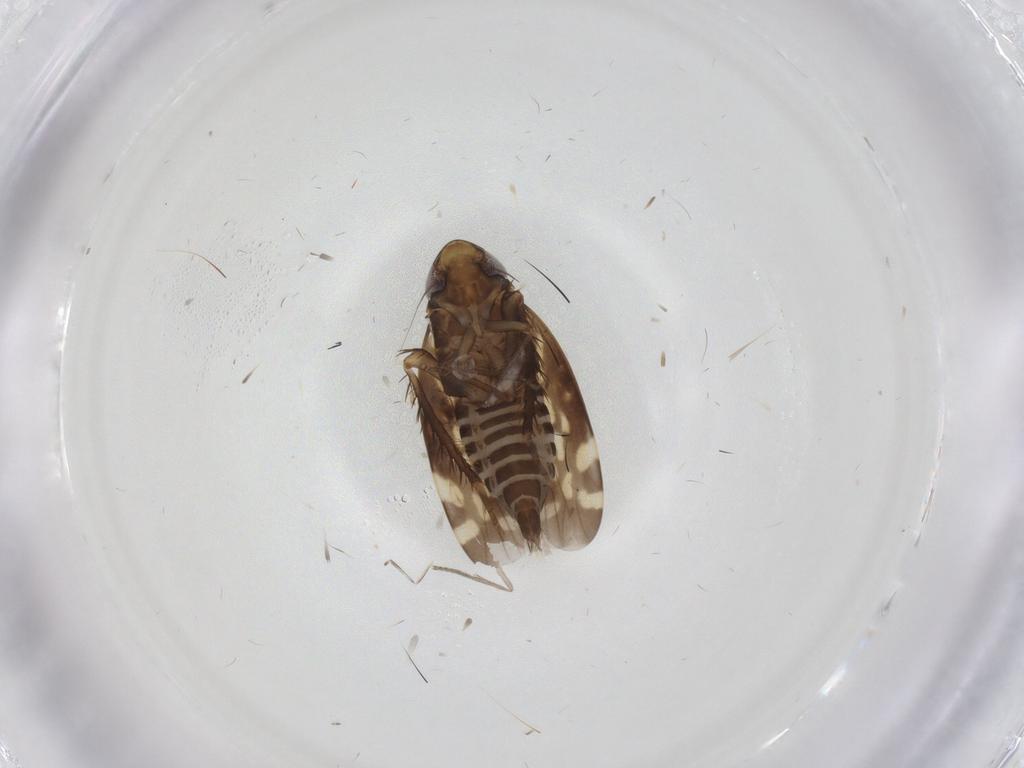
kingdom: Animalia
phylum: Arthropoda
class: Insecta
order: Hemiptera
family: Cicadellidae
